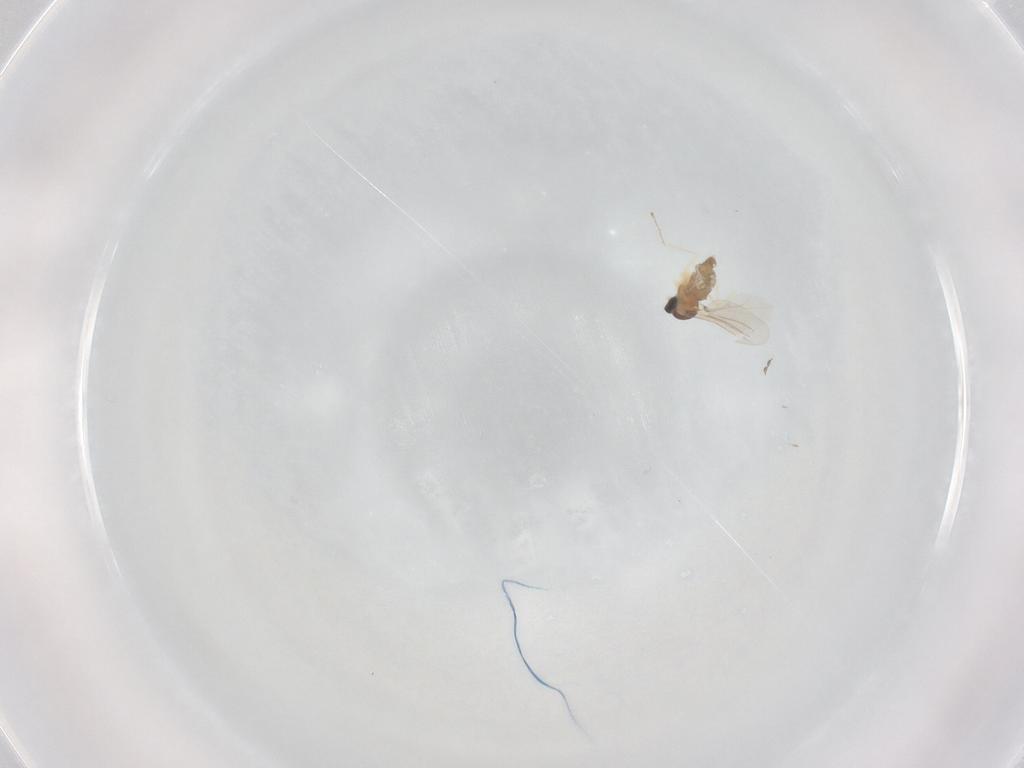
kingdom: Animalia
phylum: Arthropoda
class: Insecta
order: Diptera
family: Cecidomyiidae
